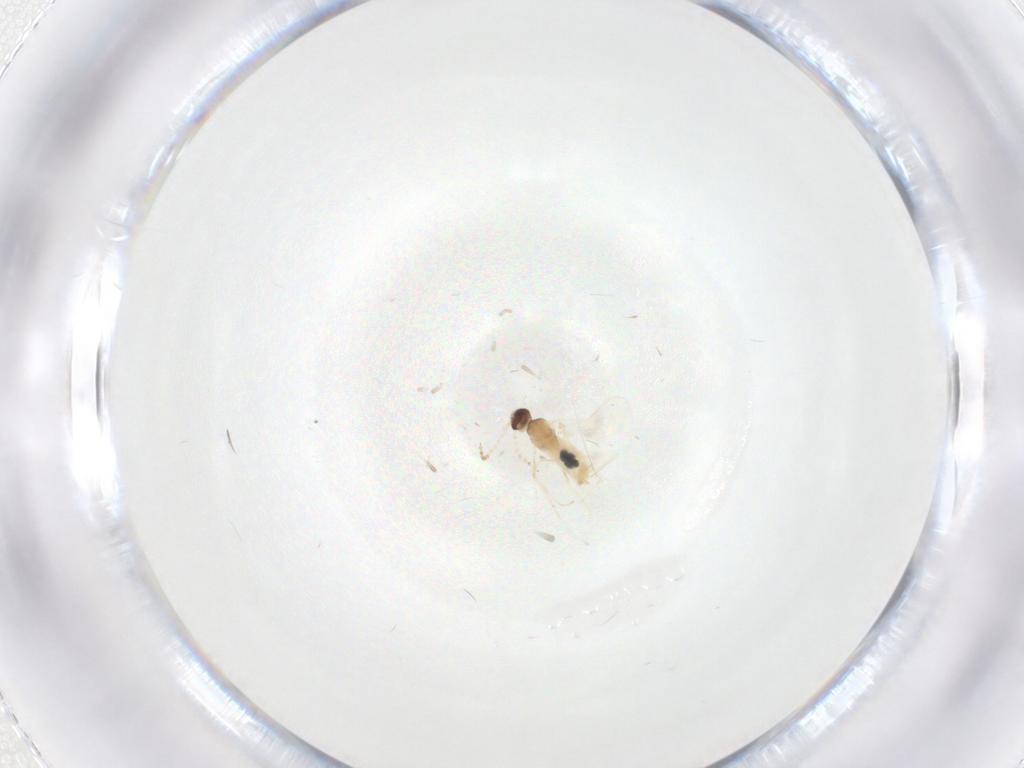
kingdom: Animalia
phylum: Arthropoda
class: Insecta
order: Diptera
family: Cecidomyiidae
